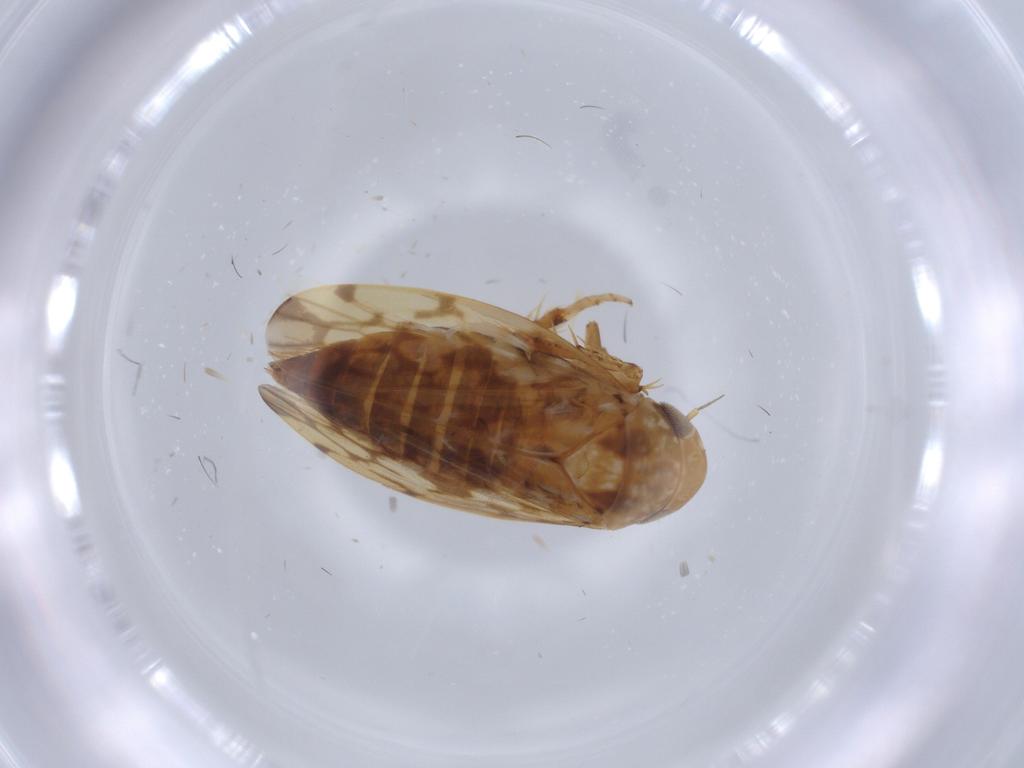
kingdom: Animalia
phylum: Arthropoda
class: Insecta
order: Hemiptera
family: Cicadellidae
